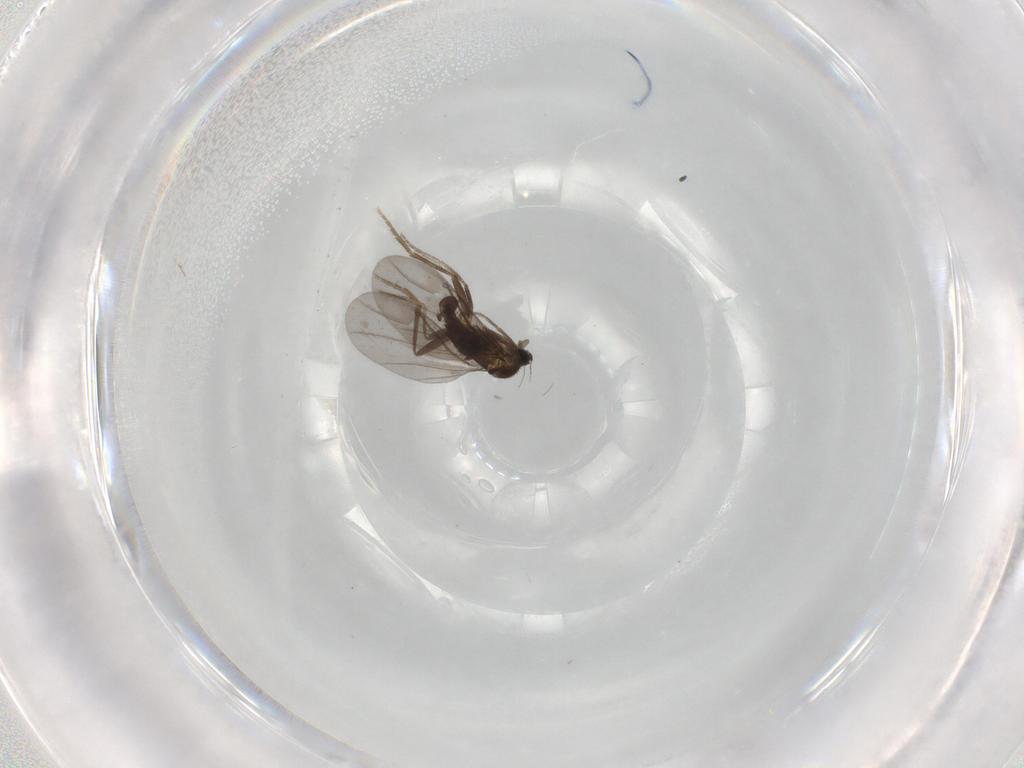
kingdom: Animalia
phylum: Arthropoda
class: Insecta
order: Diptera
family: Phoridae
